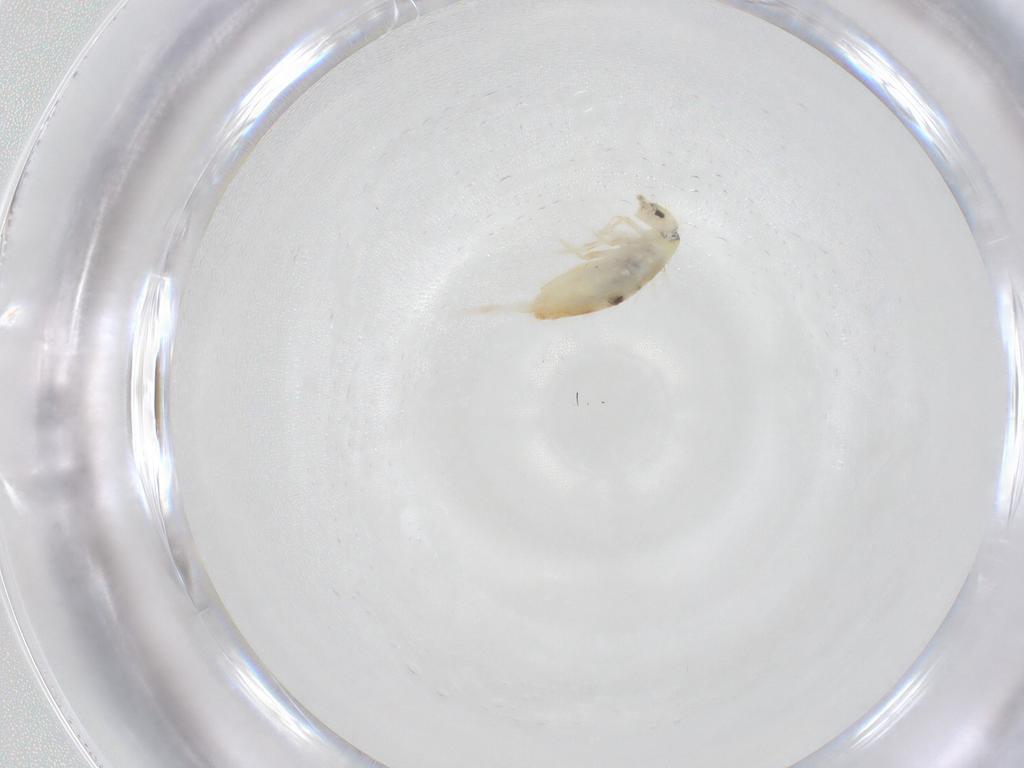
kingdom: Animalia
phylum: Arthropoda
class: Collembola
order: Entomobryomorpha
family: Entomobryidae
